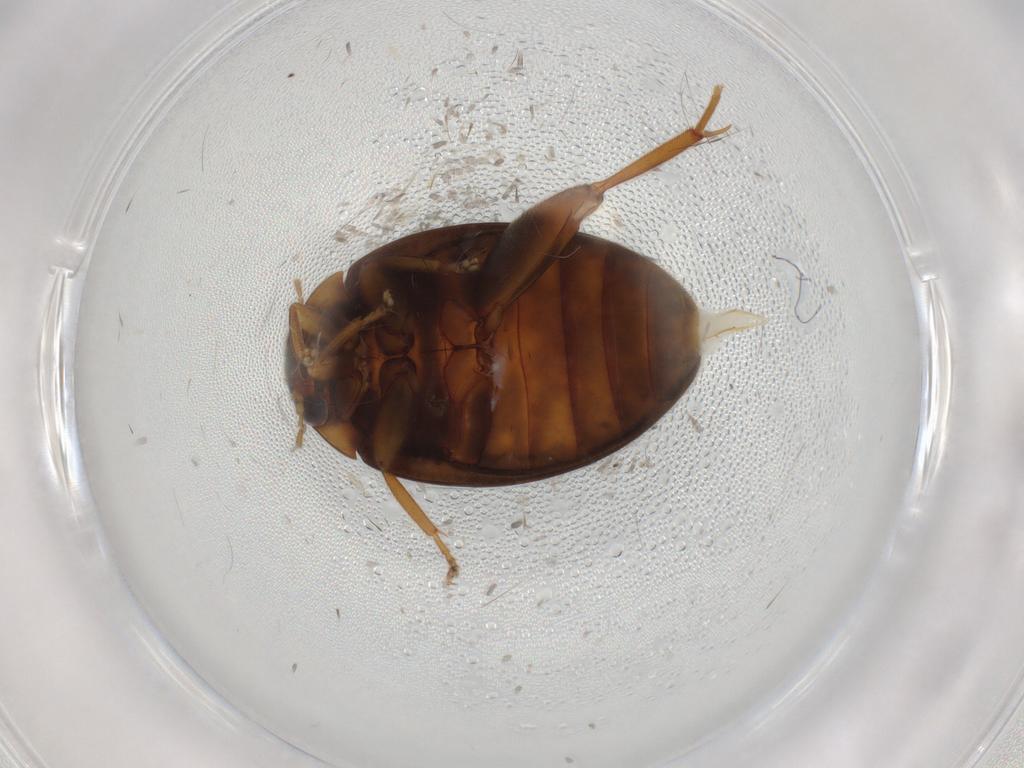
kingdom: Animalia
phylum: Arthropoda
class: Insecta
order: Coleoptera
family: Scirtidae
